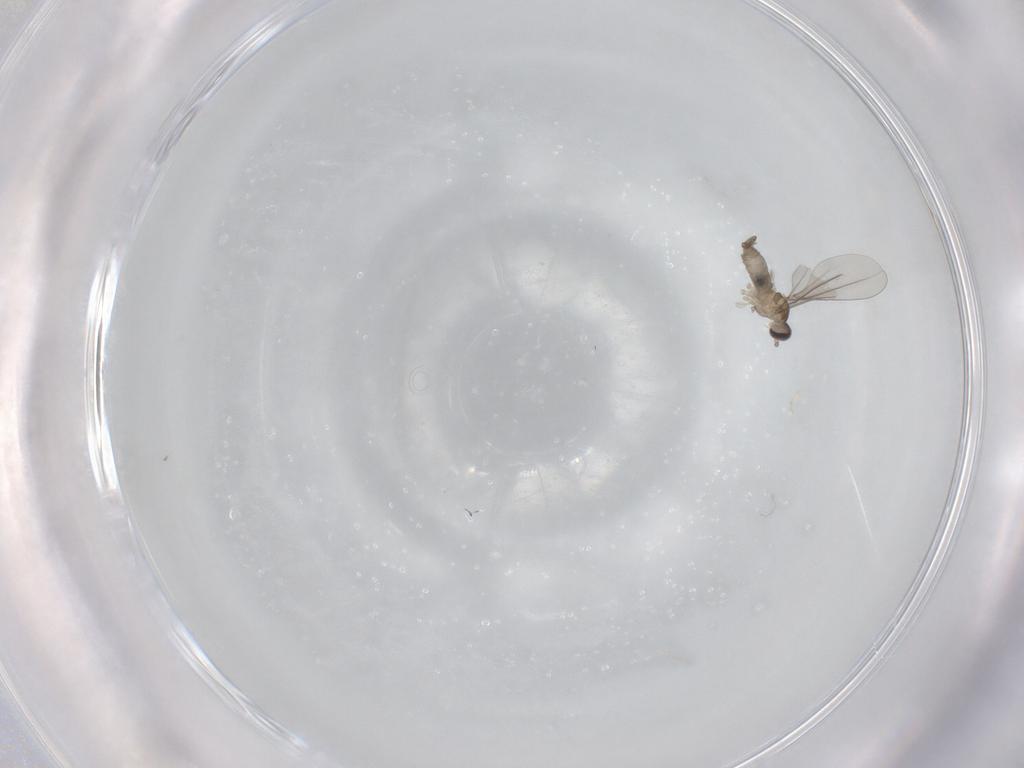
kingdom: Animalia
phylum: Arthropoda
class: Insecta
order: Diptera
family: Cecidomyiidae
